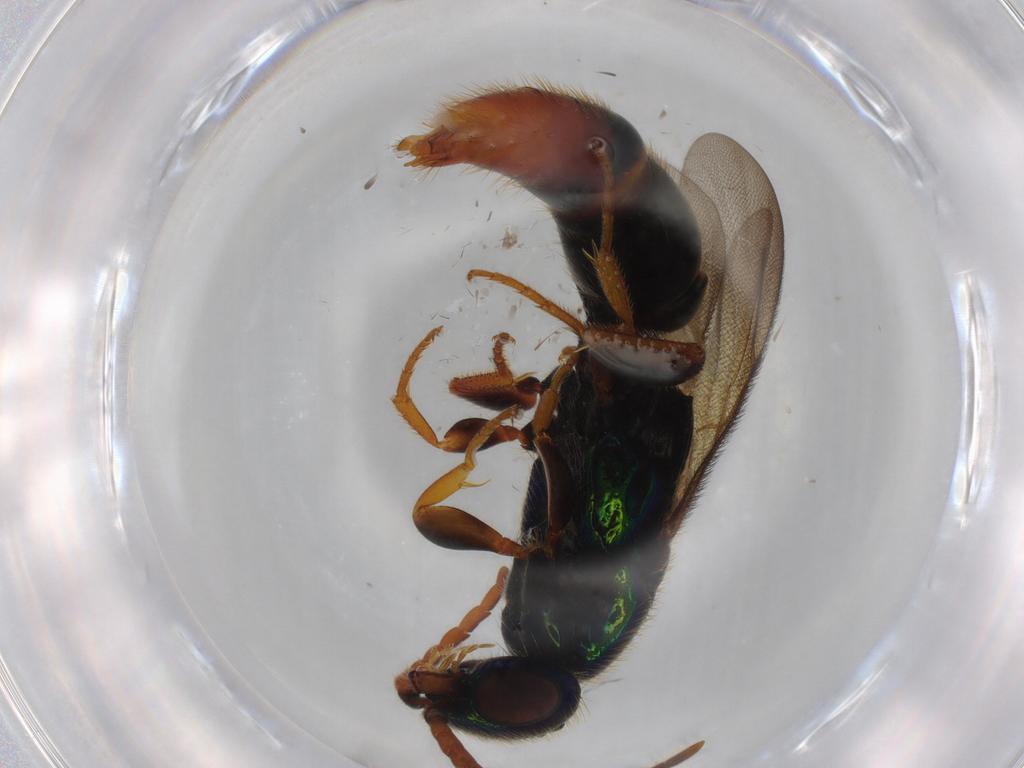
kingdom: Animalia
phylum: Arthropoda
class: Insecta
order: Hymenoptera
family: Bethylidae
